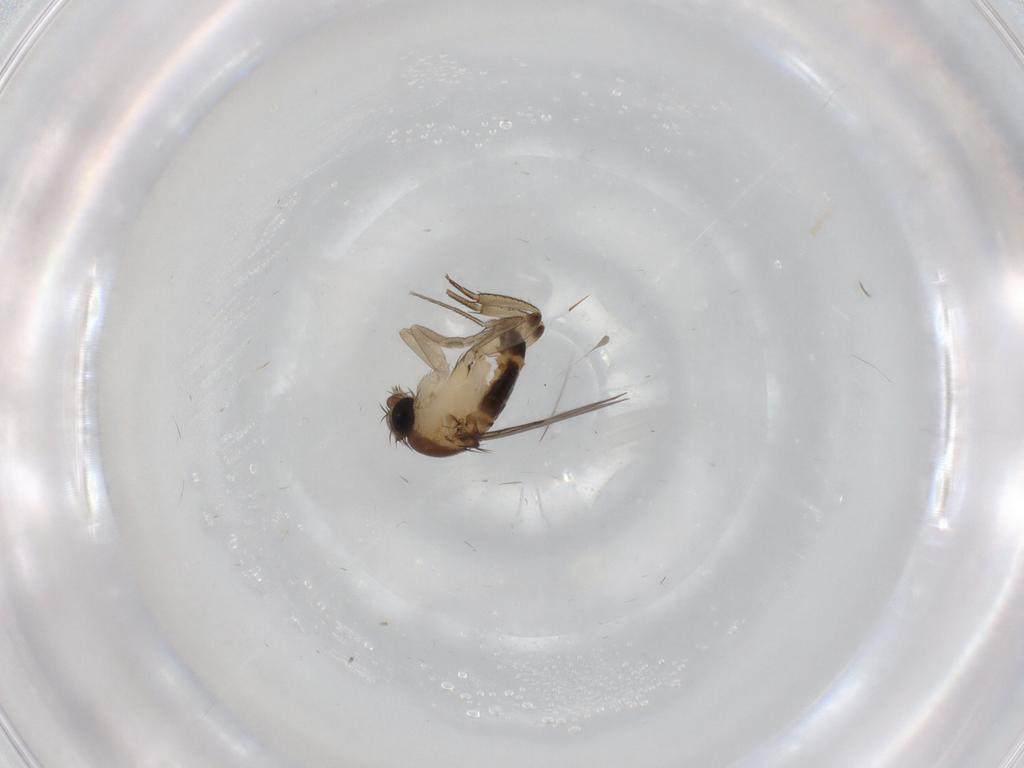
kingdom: Animalia
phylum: Arthropoda
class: Insecta
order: Diptera
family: Phoridae
